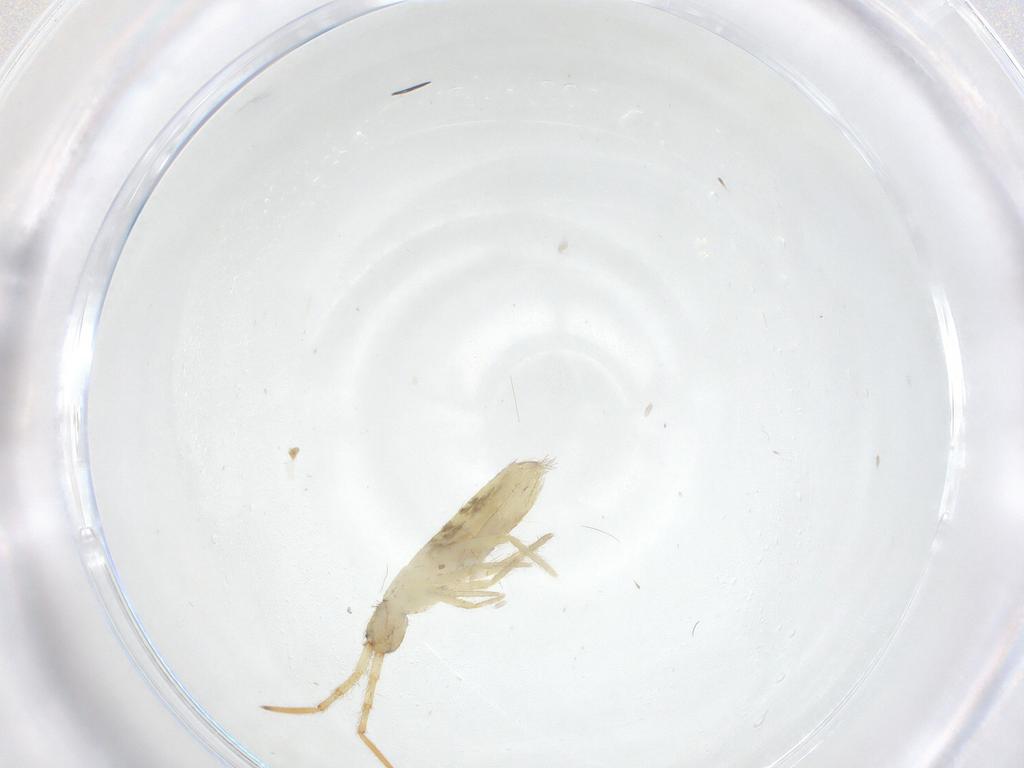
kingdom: Animalia
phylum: Arthropoda
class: Collembola
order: Entomobryomorpha
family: Entomobryidae
